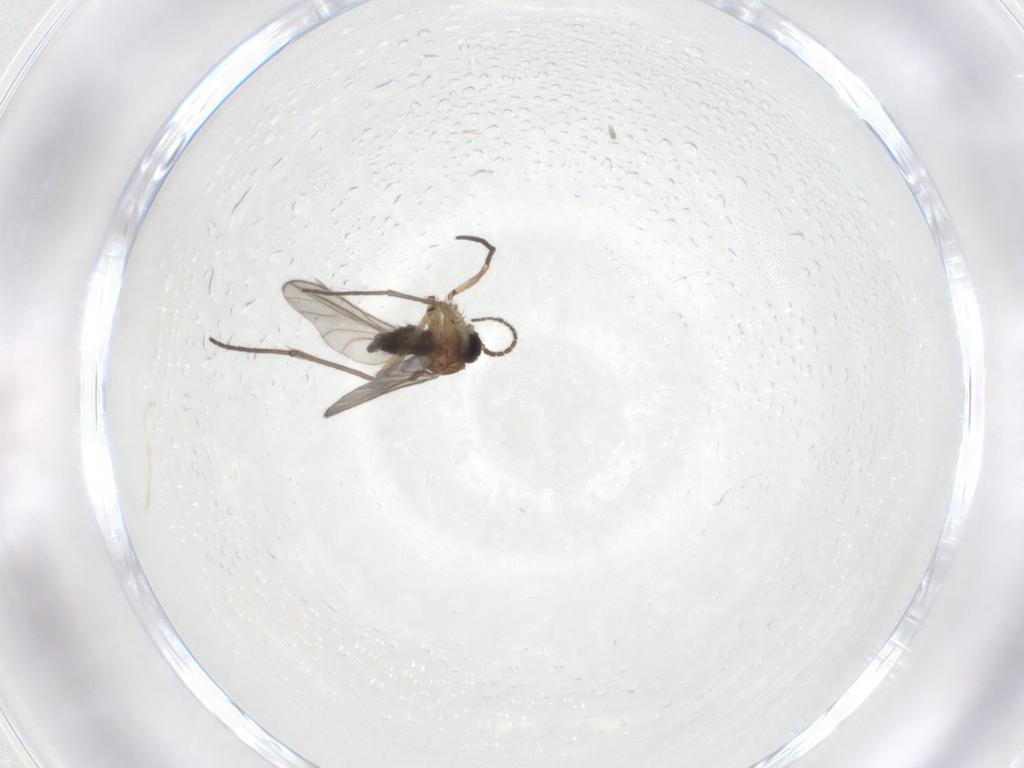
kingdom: Animalia
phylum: Arthropoda
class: Insecta
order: Diptera
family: Sciaridae
